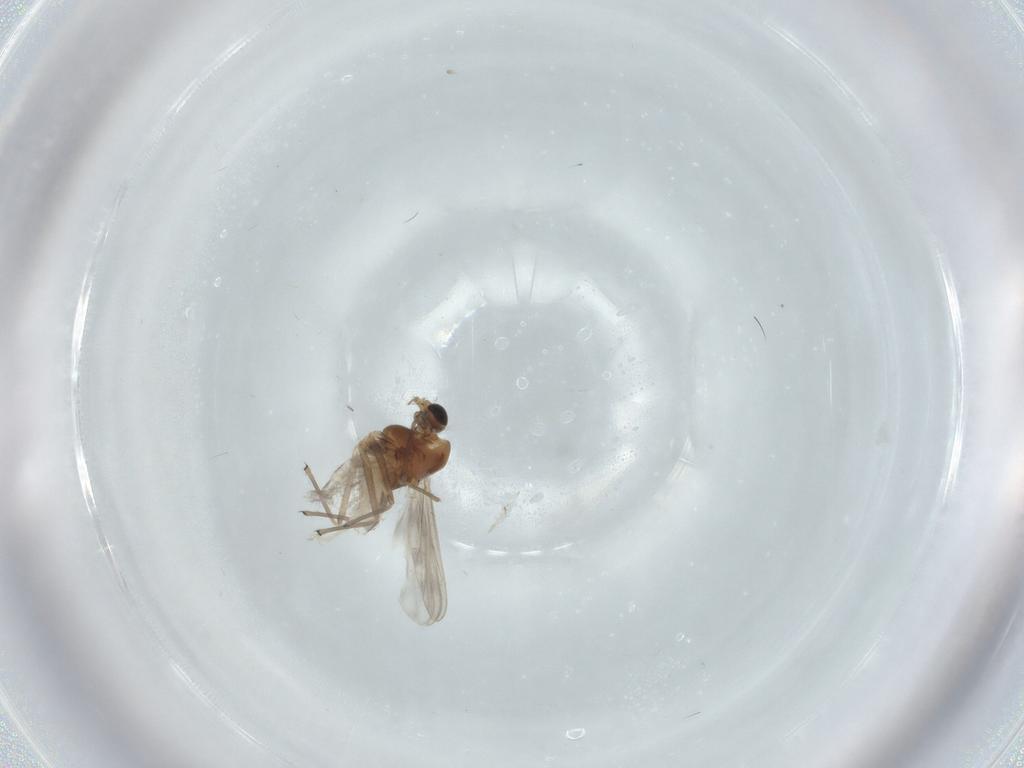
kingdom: Animalia
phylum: Arthropoda
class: Insecta
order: Diptera
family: Chironomidae
